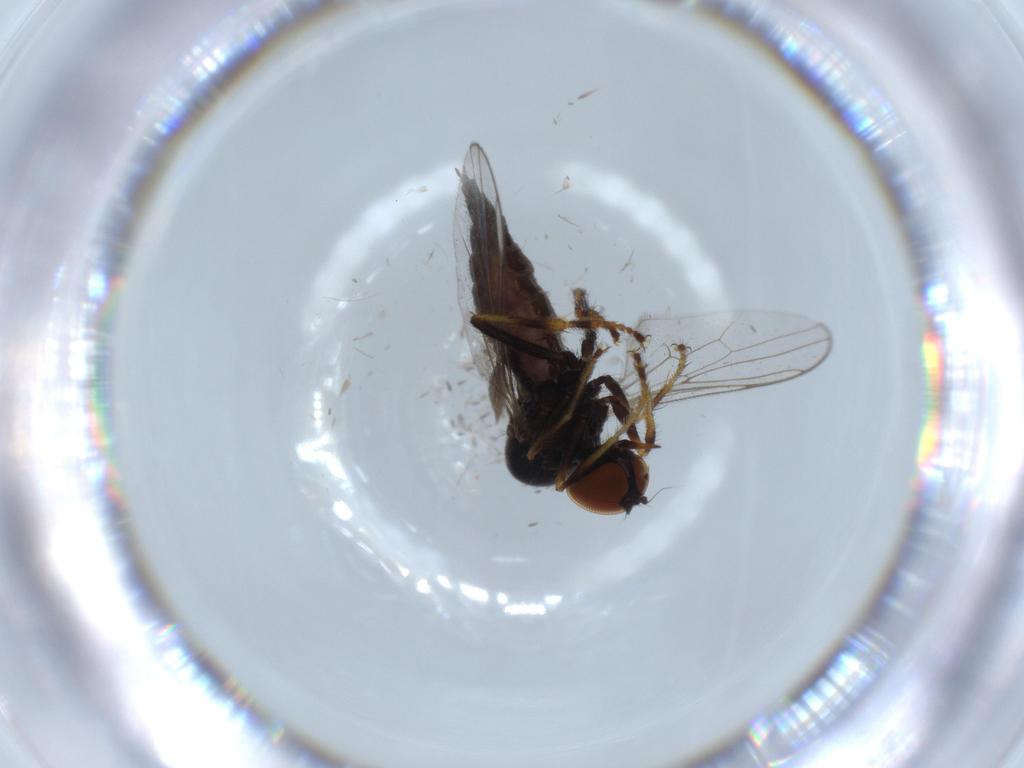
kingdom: Animalia
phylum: Arthropoda
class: Insecta
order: Diptera
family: Hybotidae
